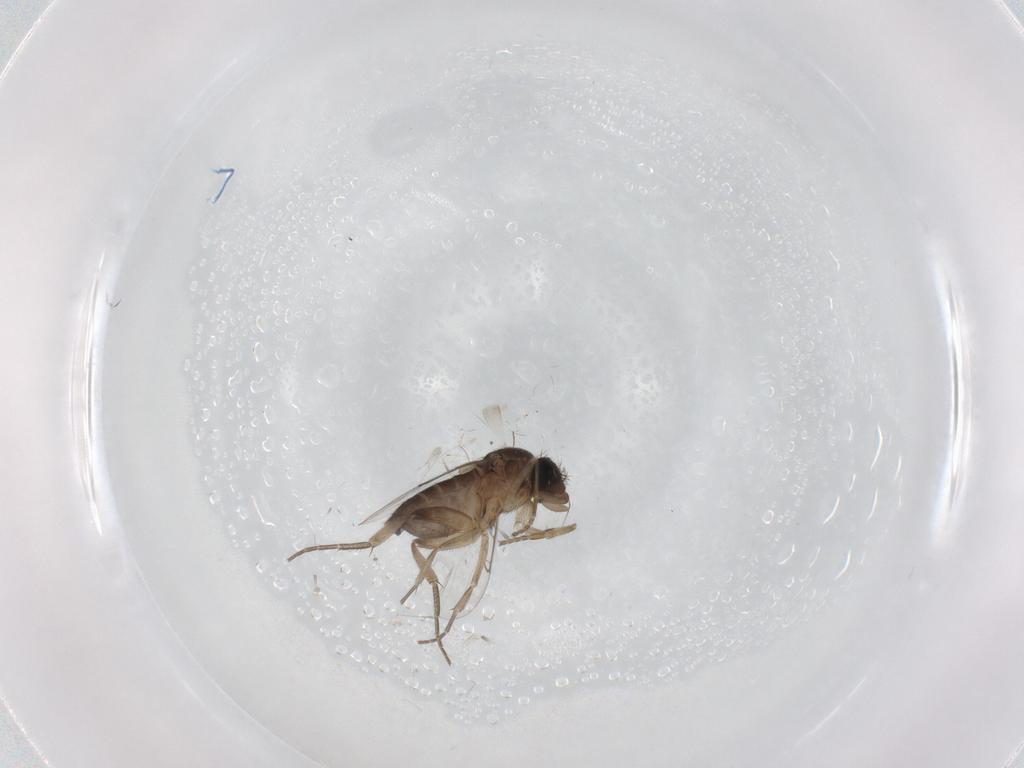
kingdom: Animalia
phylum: Arthropoda
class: Insecta
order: Diptera
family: Phoridae
